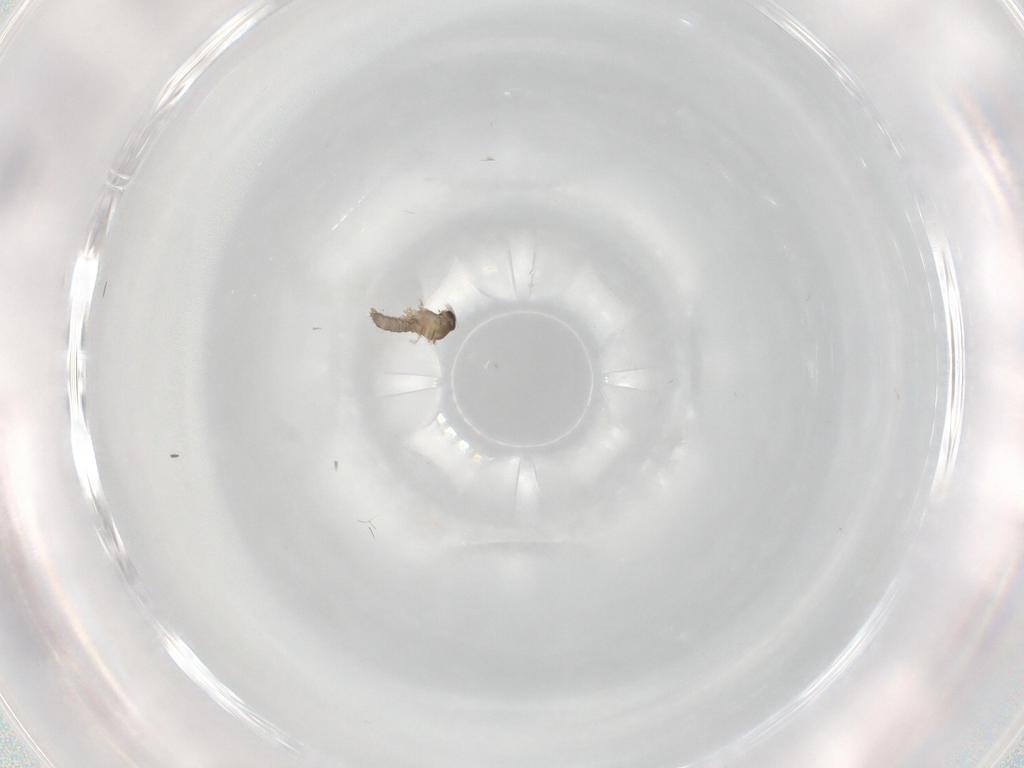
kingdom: Animalia
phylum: Arthropoda
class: Insecta
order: Diptera
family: Cecidomyiidae
